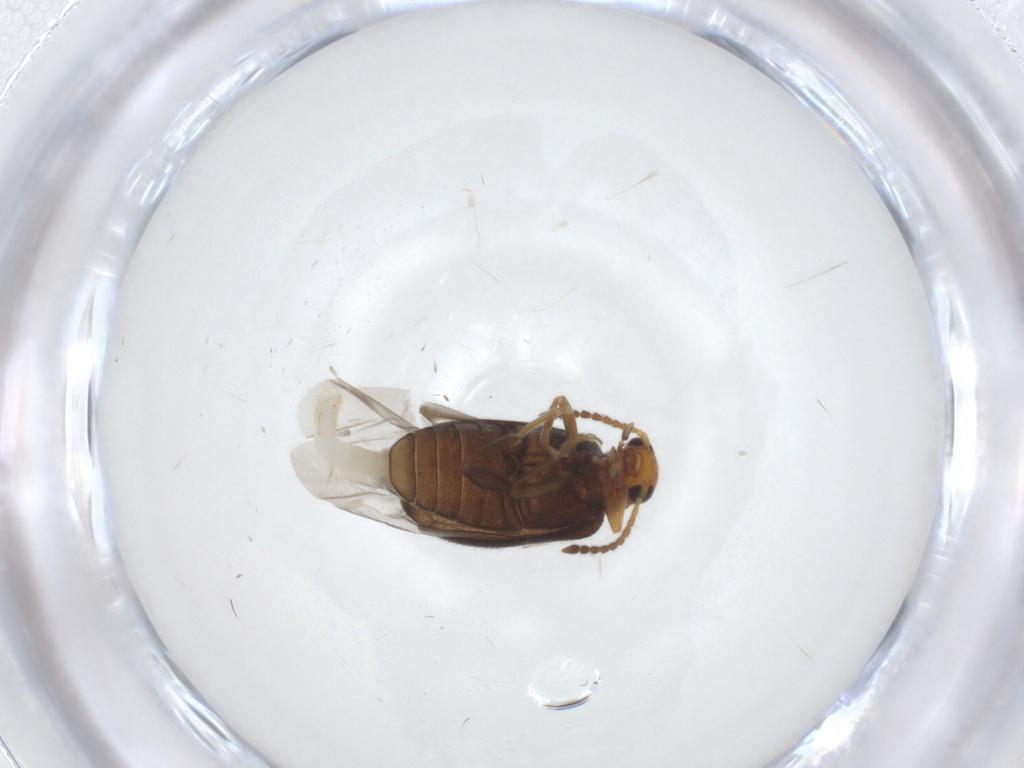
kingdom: Animalia
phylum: Arthropoda
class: Insecta
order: Coleoptera
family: Aderidae
